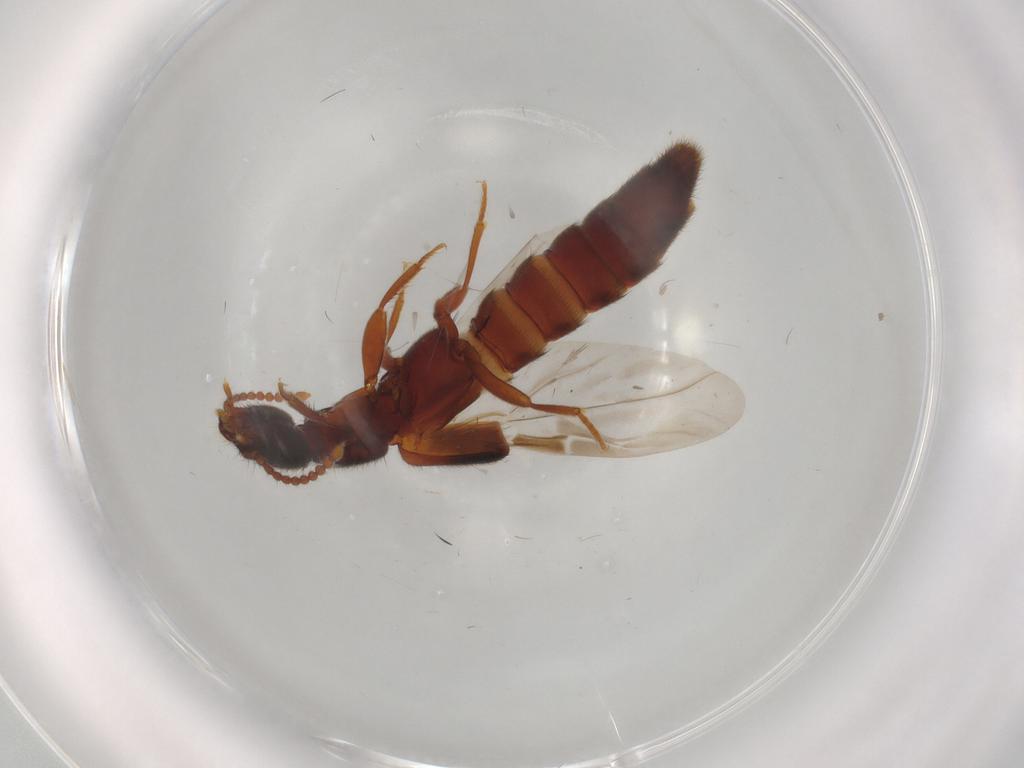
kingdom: Animalia
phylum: Arthropoda
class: Insecta
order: Coleoptera
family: Staphylinidae
